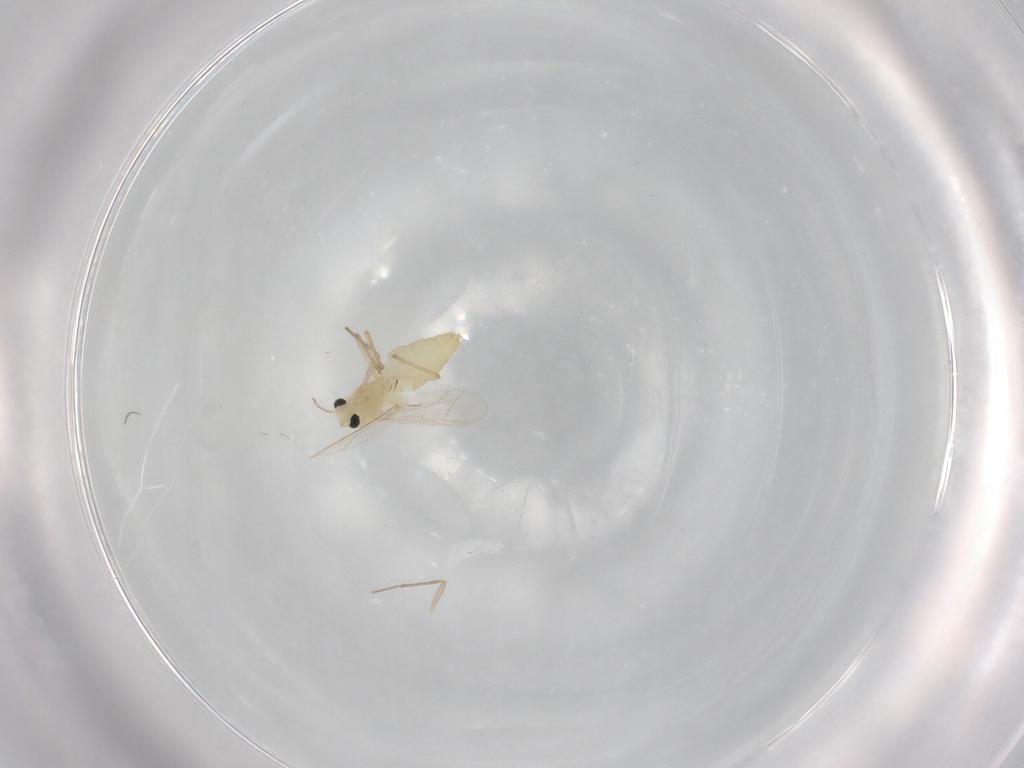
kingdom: Animalia
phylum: Arthropoda
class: Insecta
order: Diptera
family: Chironomidae
